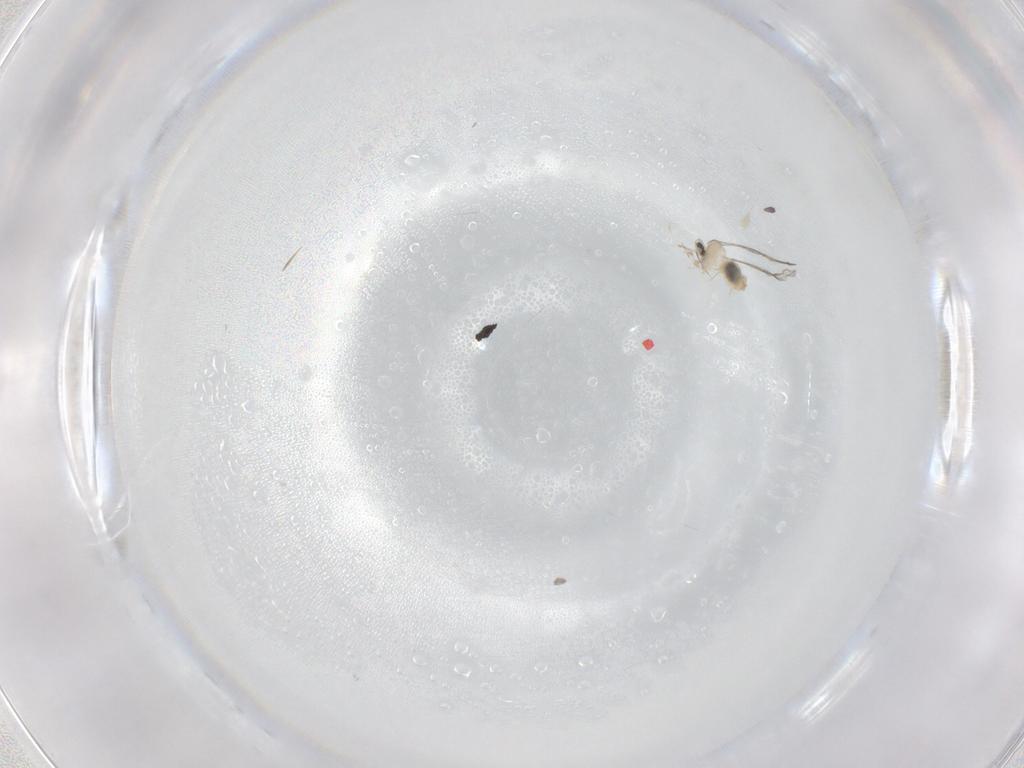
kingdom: Animalia
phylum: Arthropoda
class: Insecta
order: Diptera
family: Cecidomyiidae
